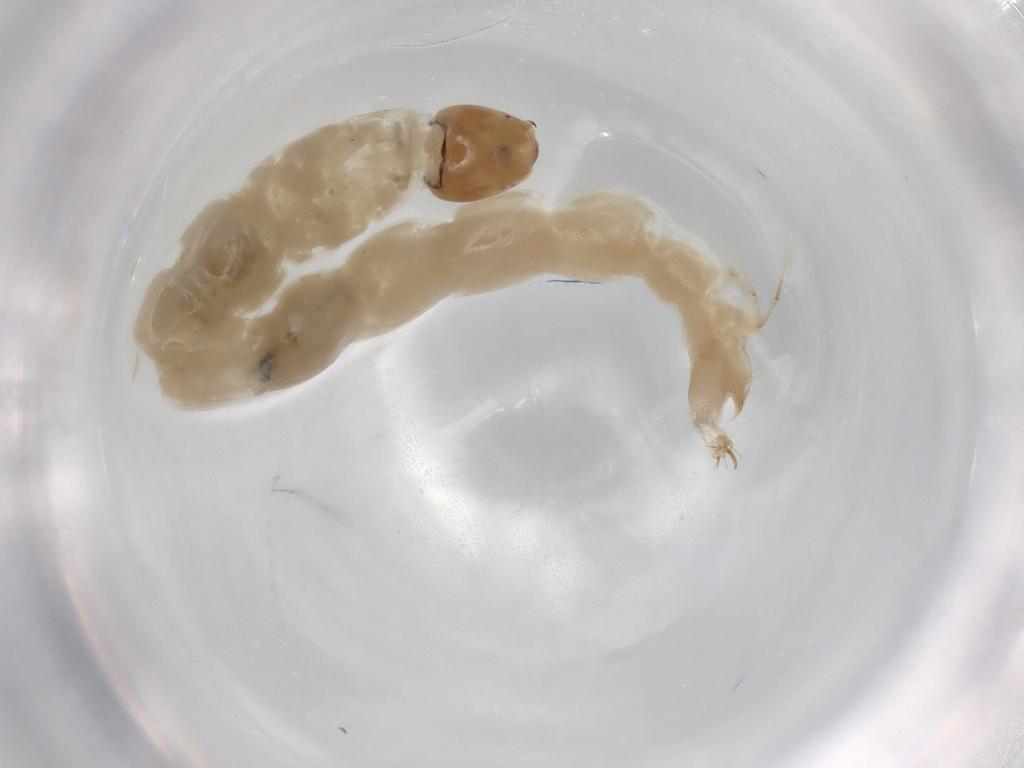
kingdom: Animalia
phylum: Arthropoda
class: Insecta
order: Diptera
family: Chironomidae
